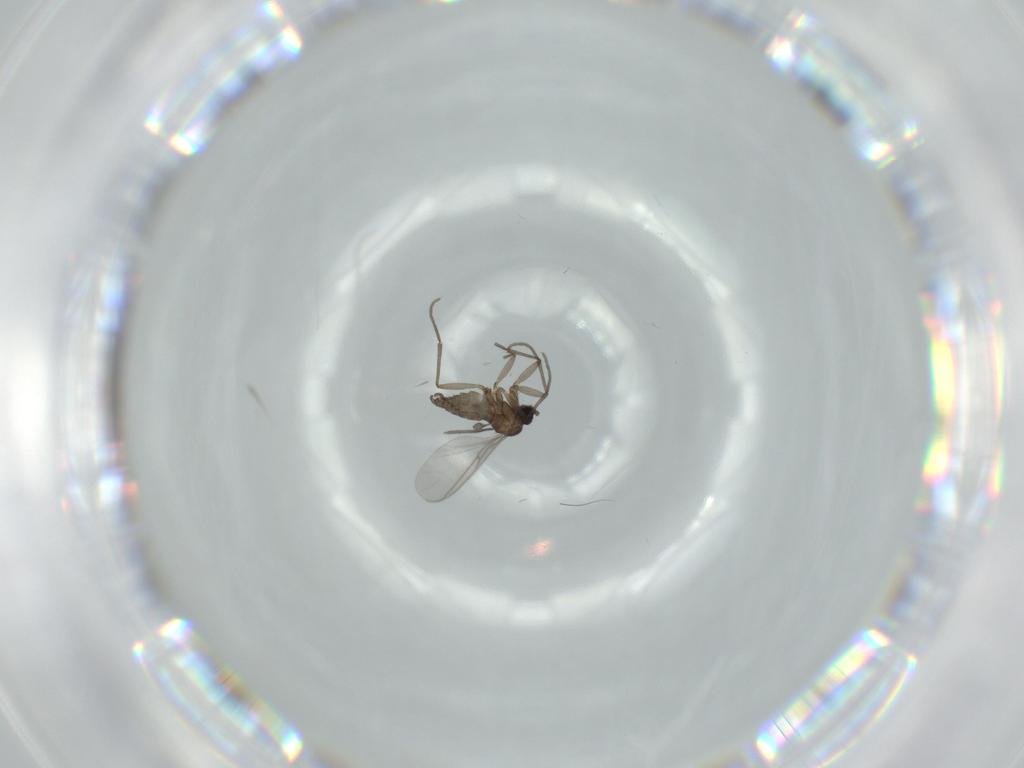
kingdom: Animalia
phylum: Arthropoda
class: Insecta
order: Diptera
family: Sciaridae
